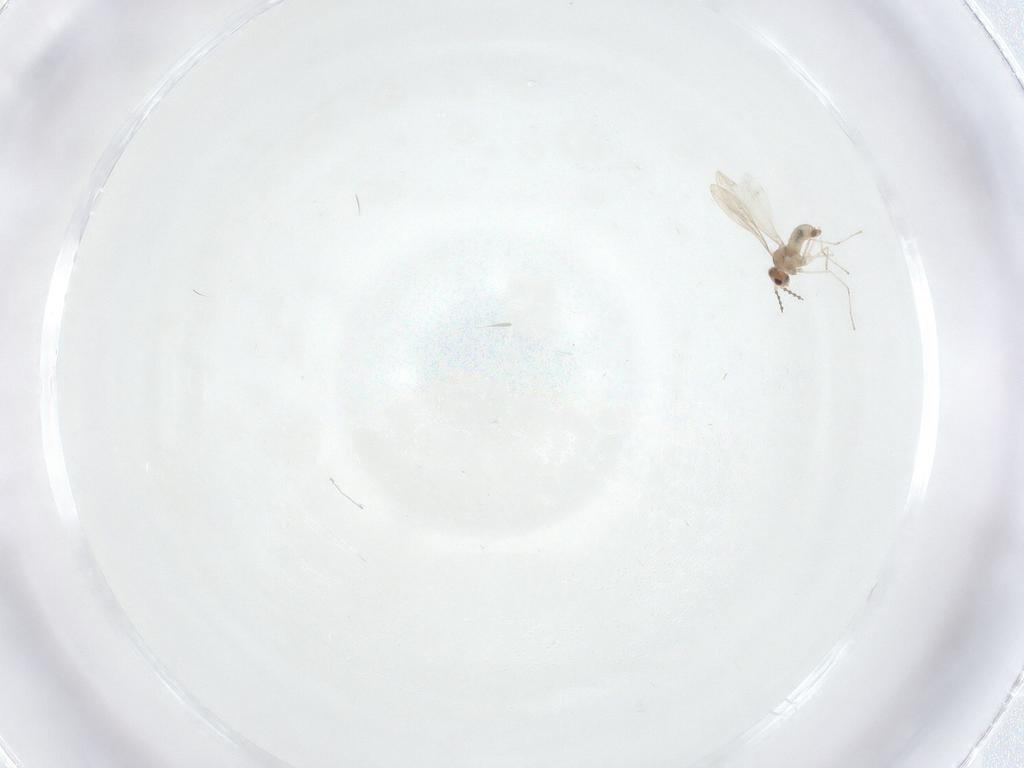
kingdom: Animalia
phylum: Arthropoda
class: Insecta
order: Diptera
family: Cecidomyiidae
